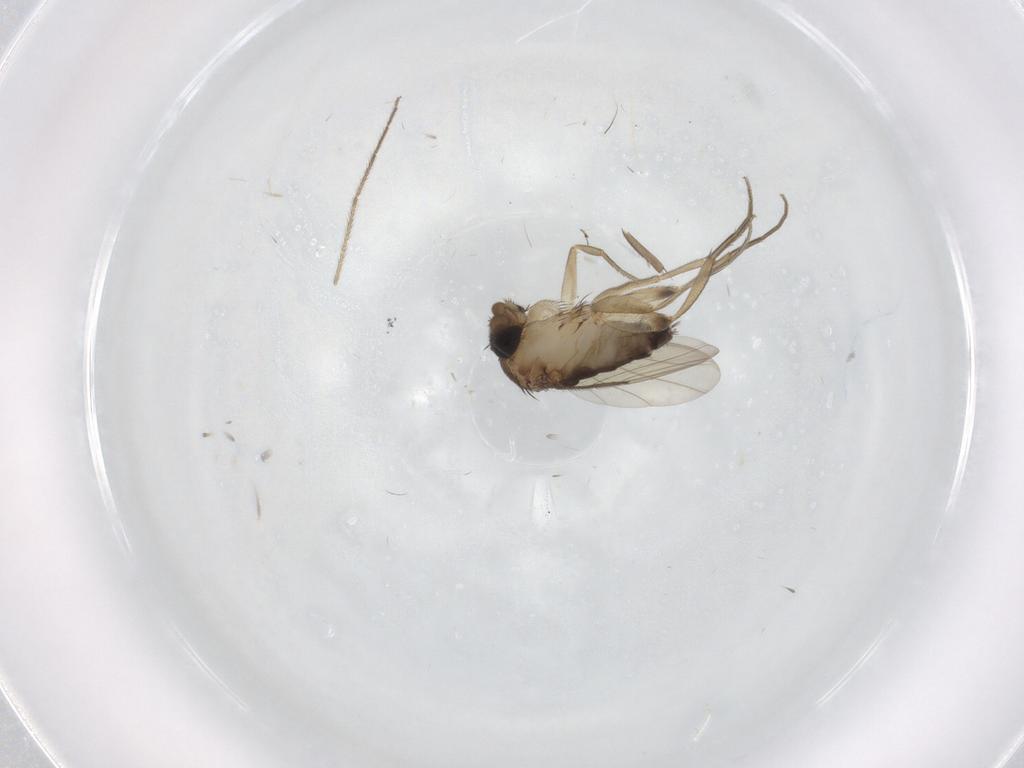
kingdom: Animalia
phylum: Arthropoda
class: Insecta
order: Diptera
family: Phoridae
